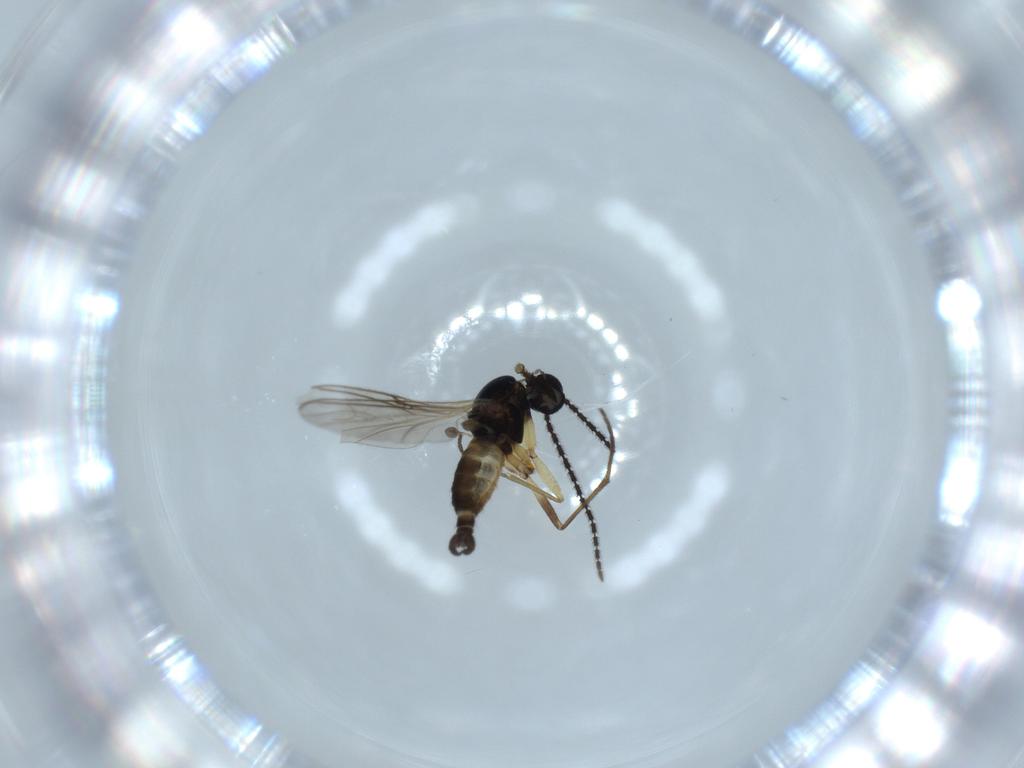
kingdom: Animalia
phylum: Arthropoda
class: Insecta
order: Diptera
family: Sciaridae
